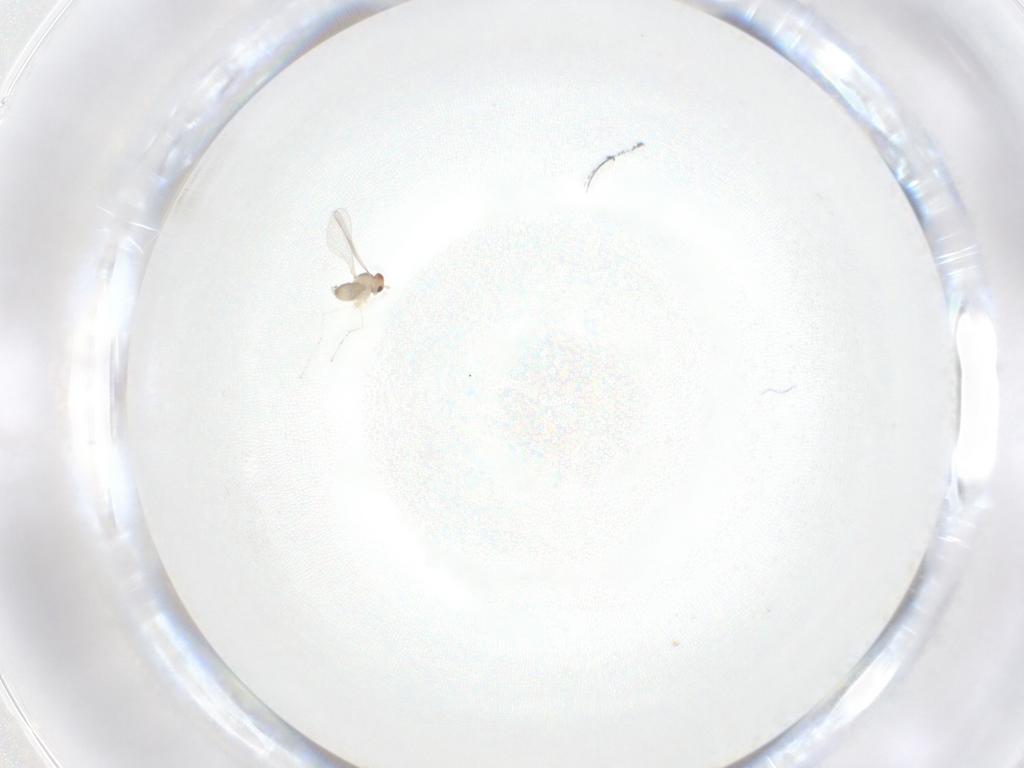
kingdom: Animalia
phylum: Arthropoda
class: Insecta
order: Diptera
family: Cecidomyiidae
